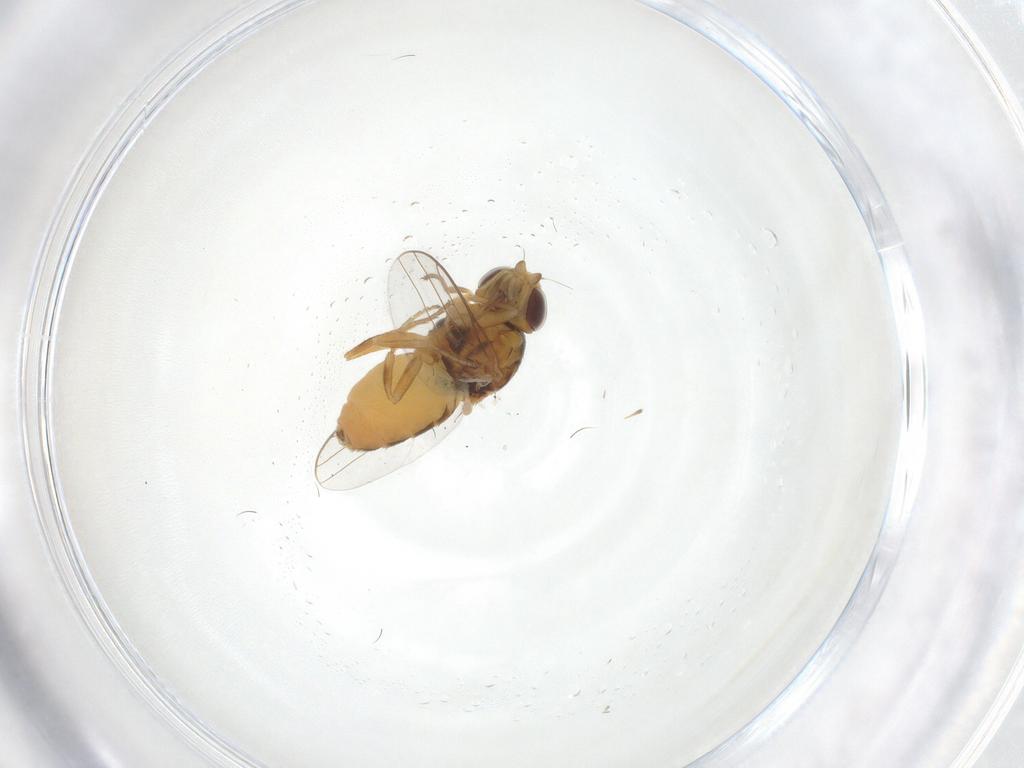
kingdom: Animalia
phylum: Arthropoda
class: Insecta
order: Diptera
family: Chloropidae
